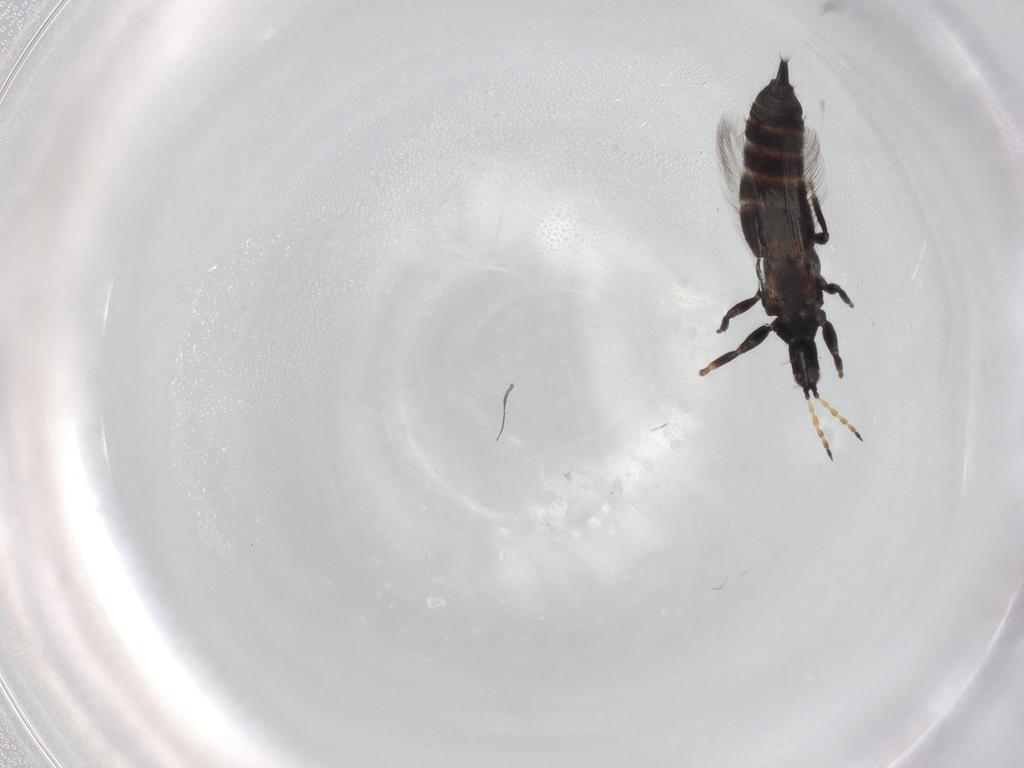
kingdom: Animalia
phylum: Arthropoda
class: Insecta
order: Thysanoptera
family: Phlaeothripidae
